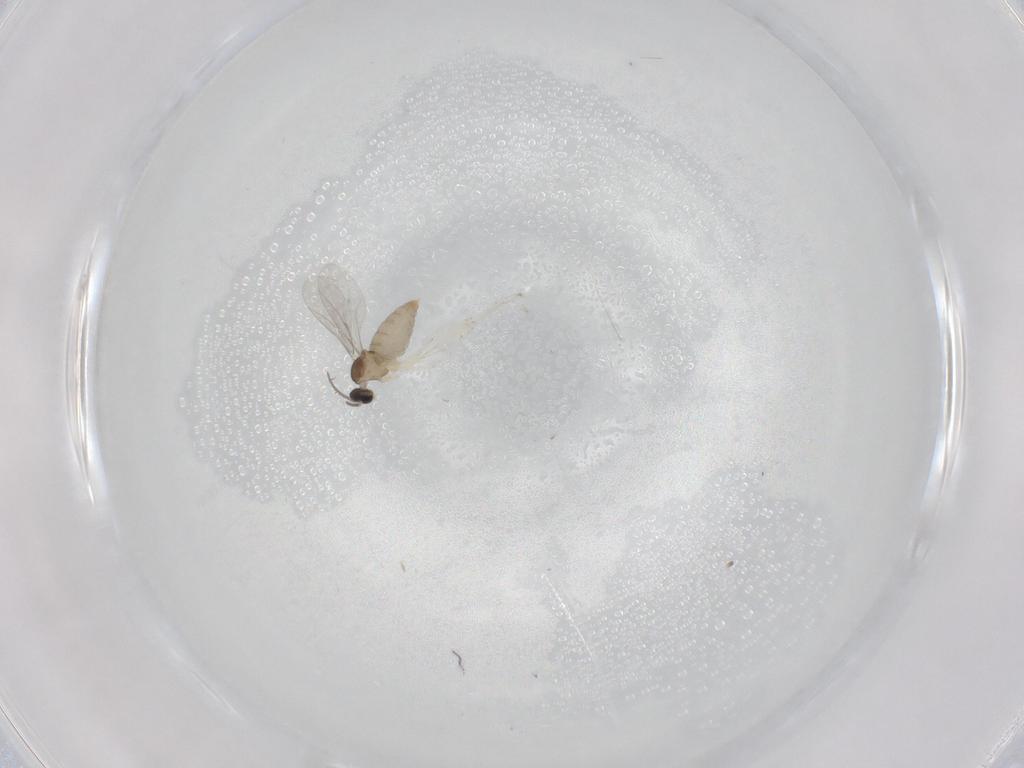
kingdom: Animalia
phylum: Arthropoda
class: Insecta
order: Diptera
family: Cecidomyiidae
